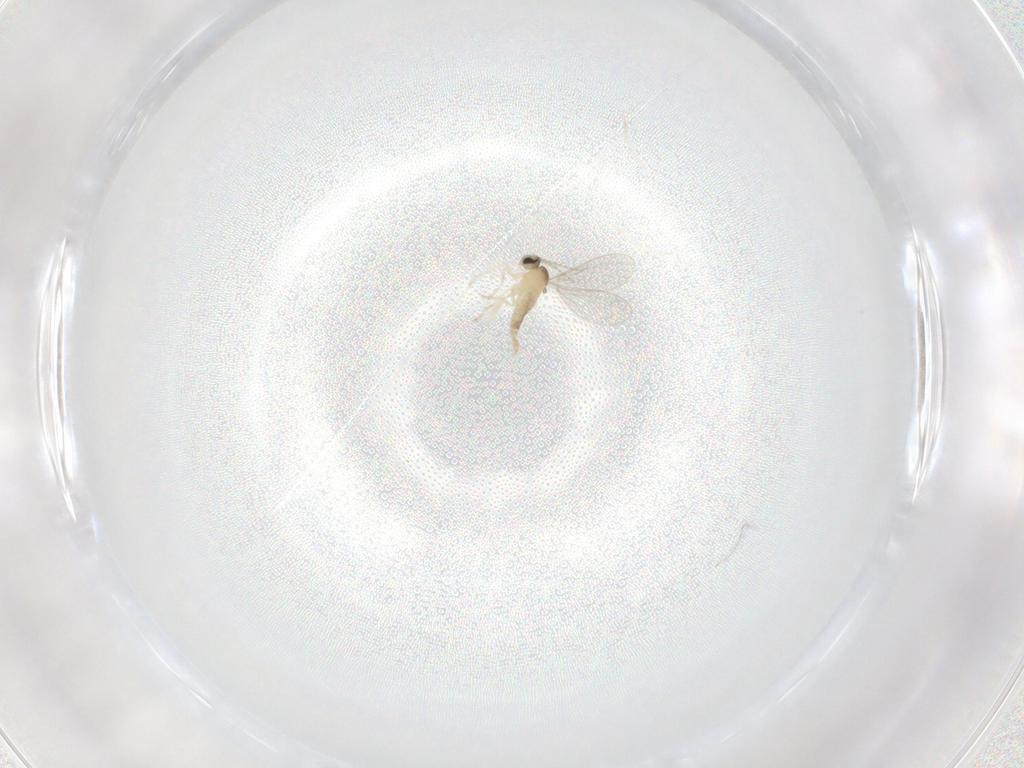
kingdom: Animalia
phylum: Arthropoda
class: Insecta
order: Diptera
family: Cecidomyiidae
